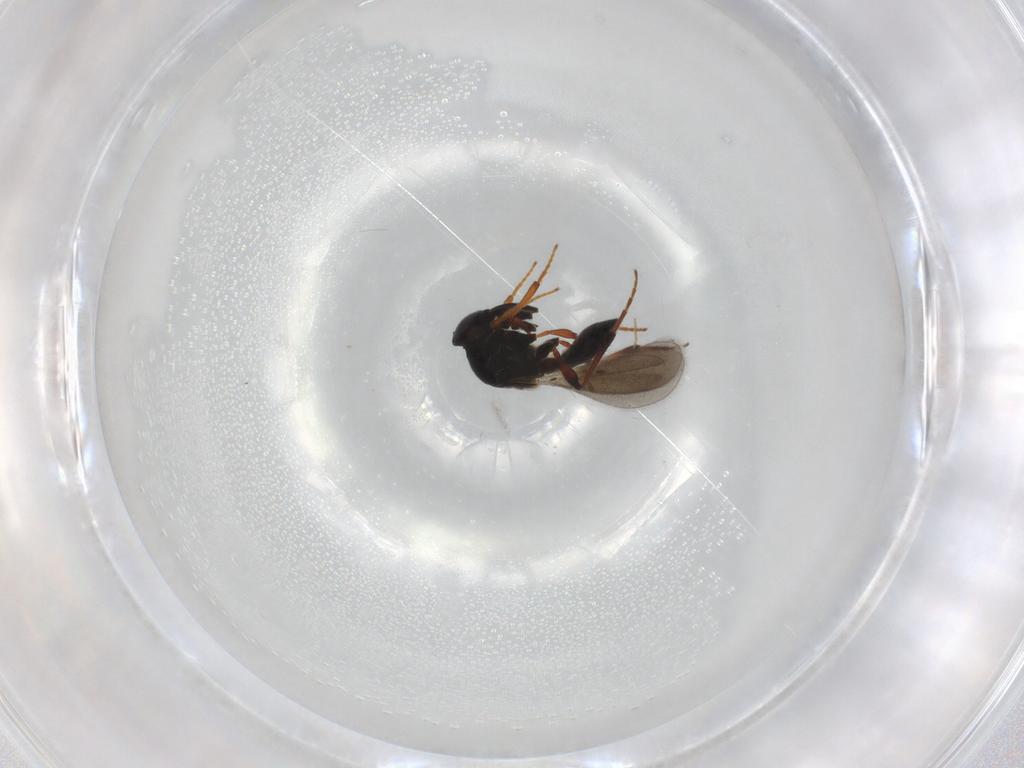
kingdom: Animalia
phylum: Arthropoda
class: Insecta
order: Hymenoptera
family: Platygastridae
